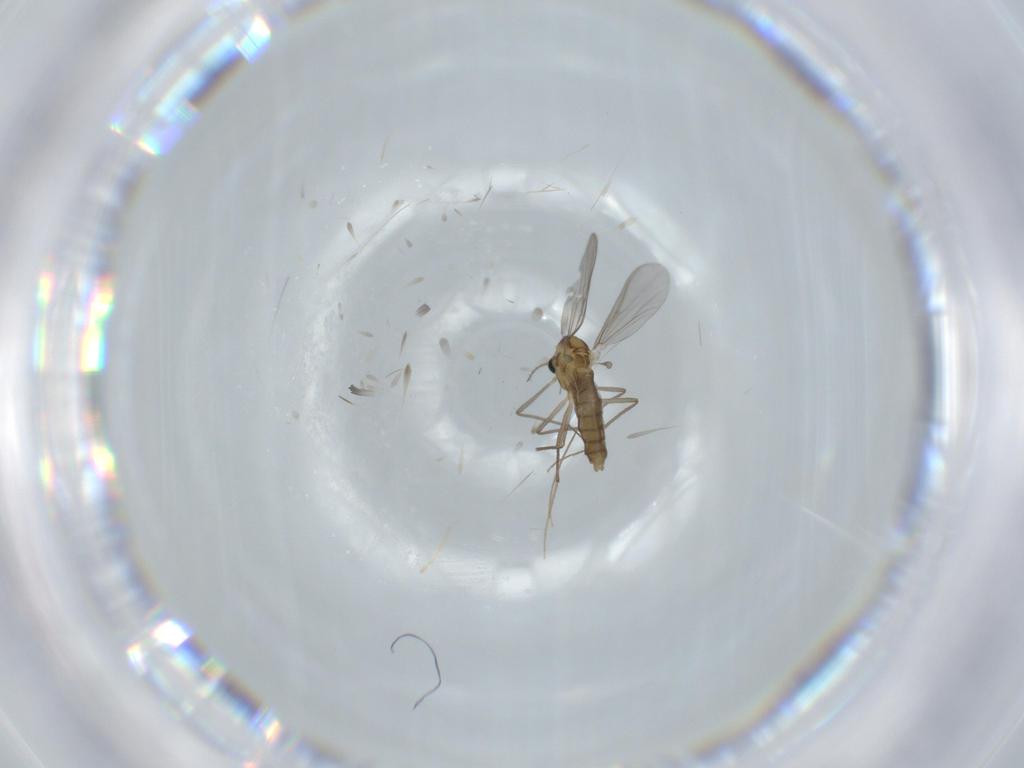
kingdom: Animalia
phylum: Arthropoda
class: Insecta
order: Diptera
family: Chironomidae
